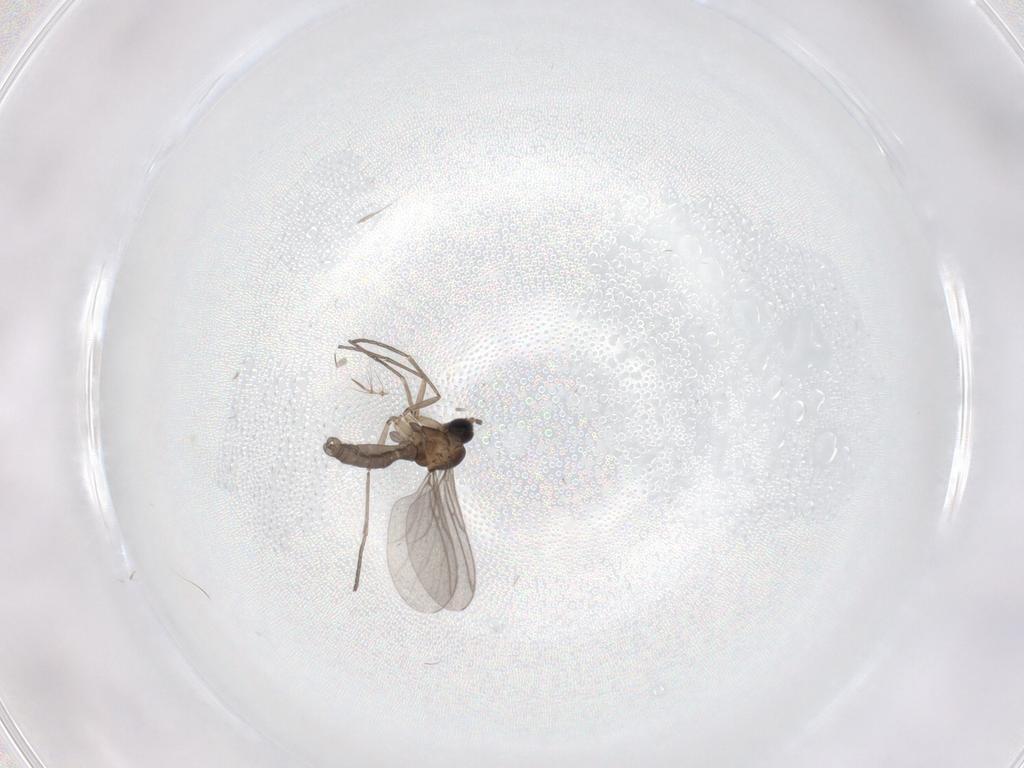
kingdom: Animalia
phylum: Arthropoda
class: Insecta
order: Diptera
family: Sciaridae
